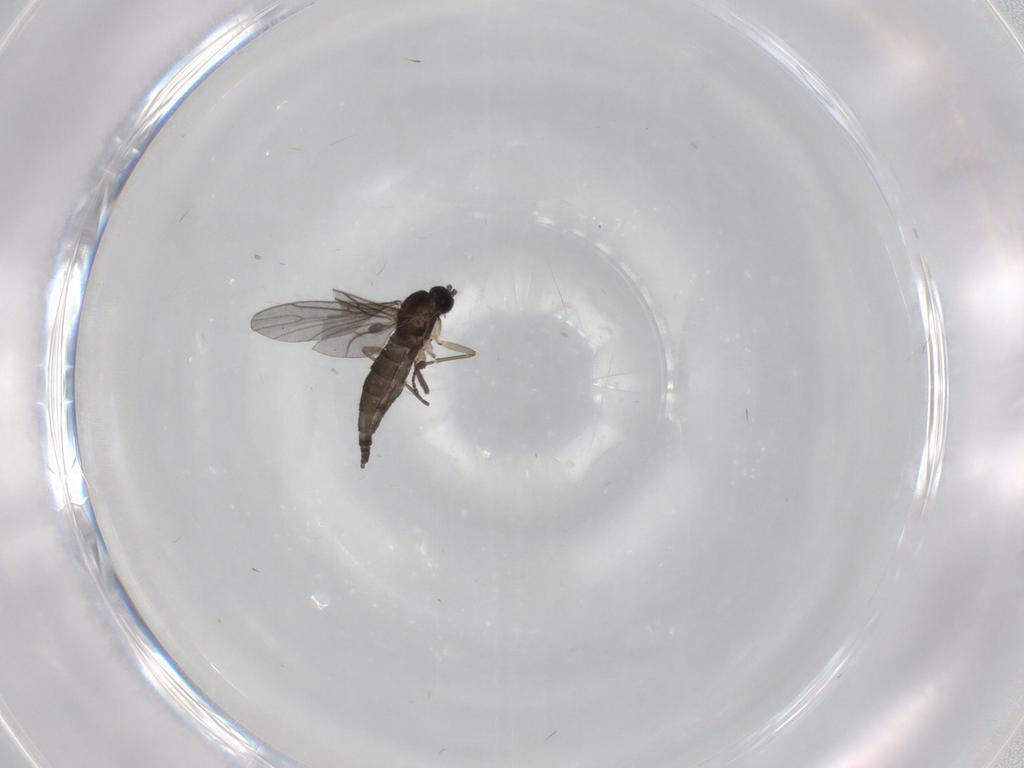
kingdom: Animalia
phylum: Arthropoda
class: Insecta
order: Diptera
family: Sciaridae
